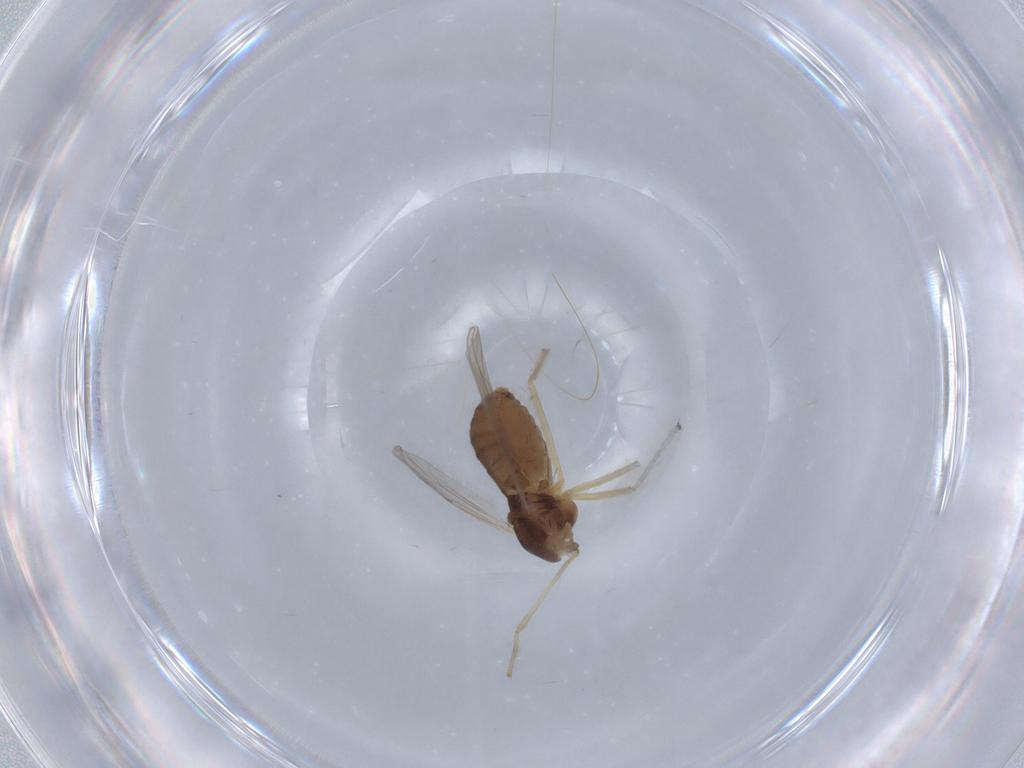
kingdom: Animalia
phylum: Arthropoda
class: Insecta
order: Diptera
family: Chironomidae
